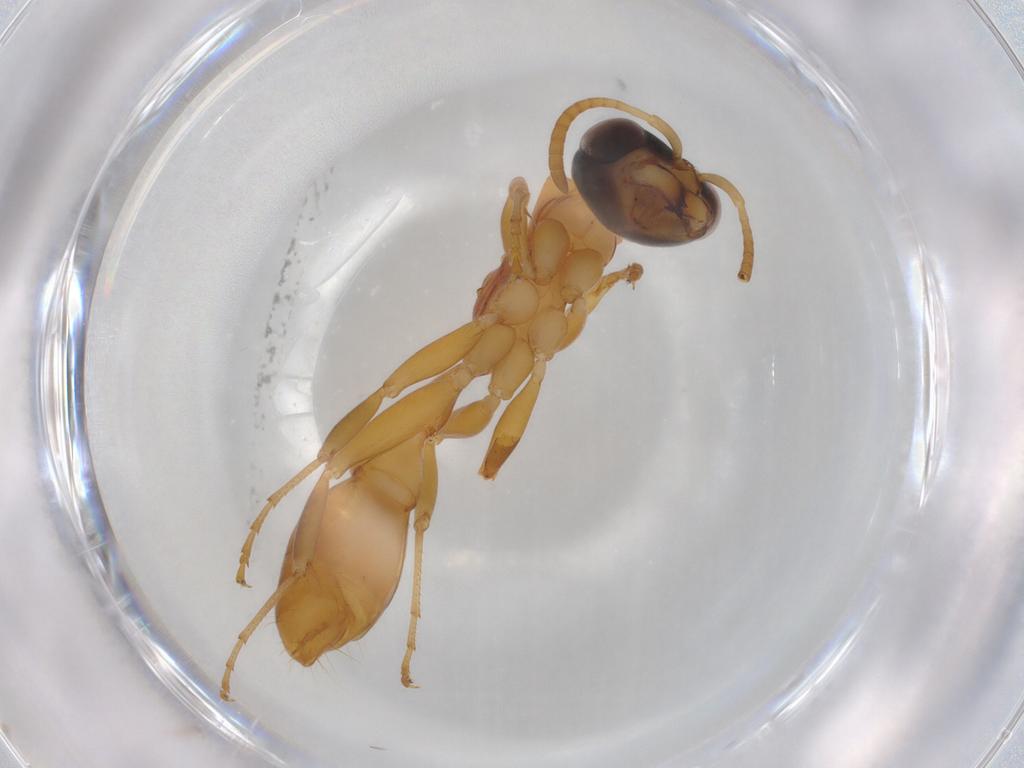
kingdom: Animalia
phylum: Arthropoda
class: Insecta
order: Hymenoptera
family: Formicidae
